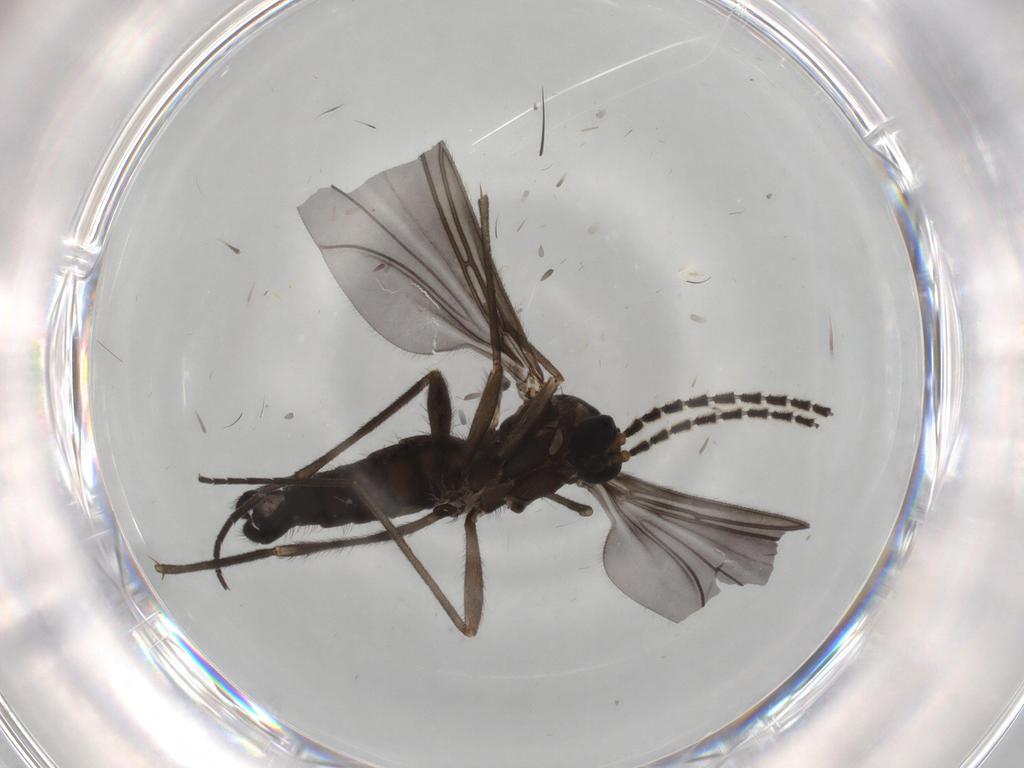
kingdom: Animalia
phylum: Arthropoda
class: Insecta
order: Diptera
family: Sciaridae
